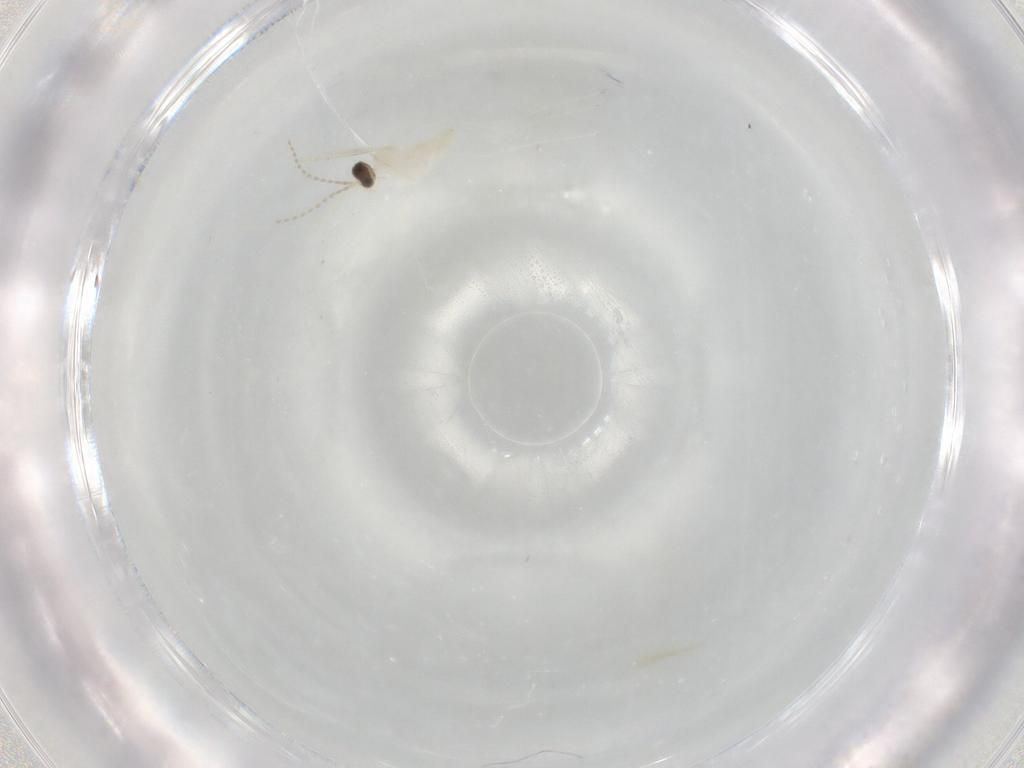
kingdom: Animalia
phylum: Arthropoda
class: Insecta
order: Diptera
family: Cecidomyiidae
